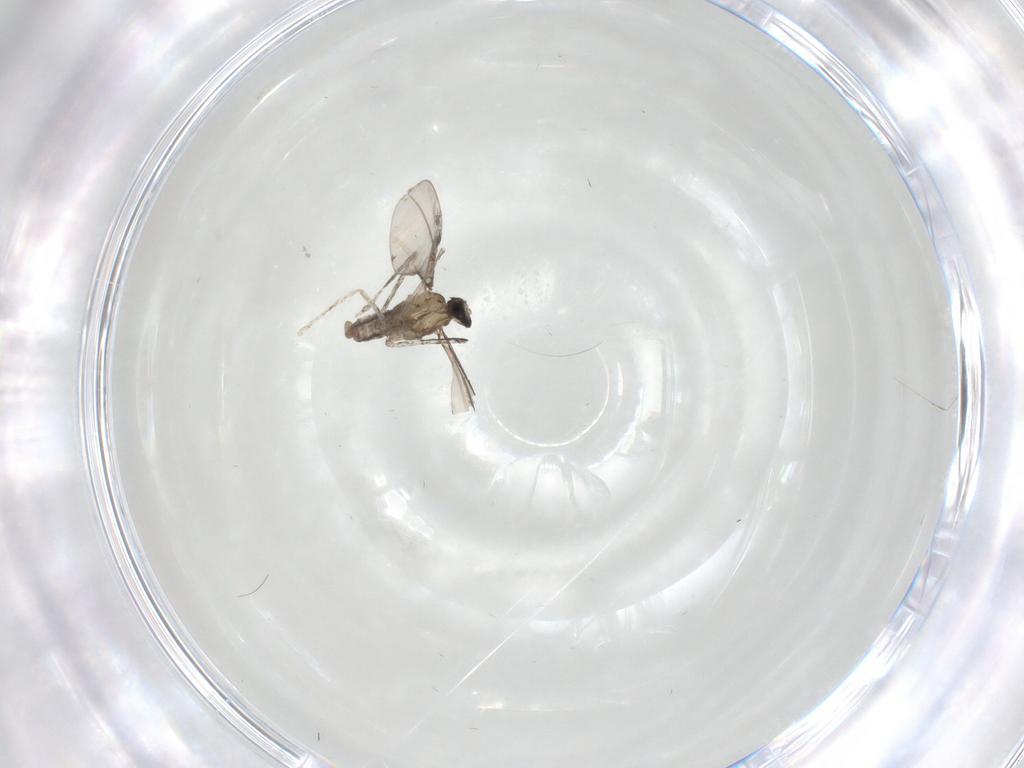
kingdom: Animalia
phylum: Arthropoda
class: Insecta
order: Diptera
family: Cecidomyiidae
